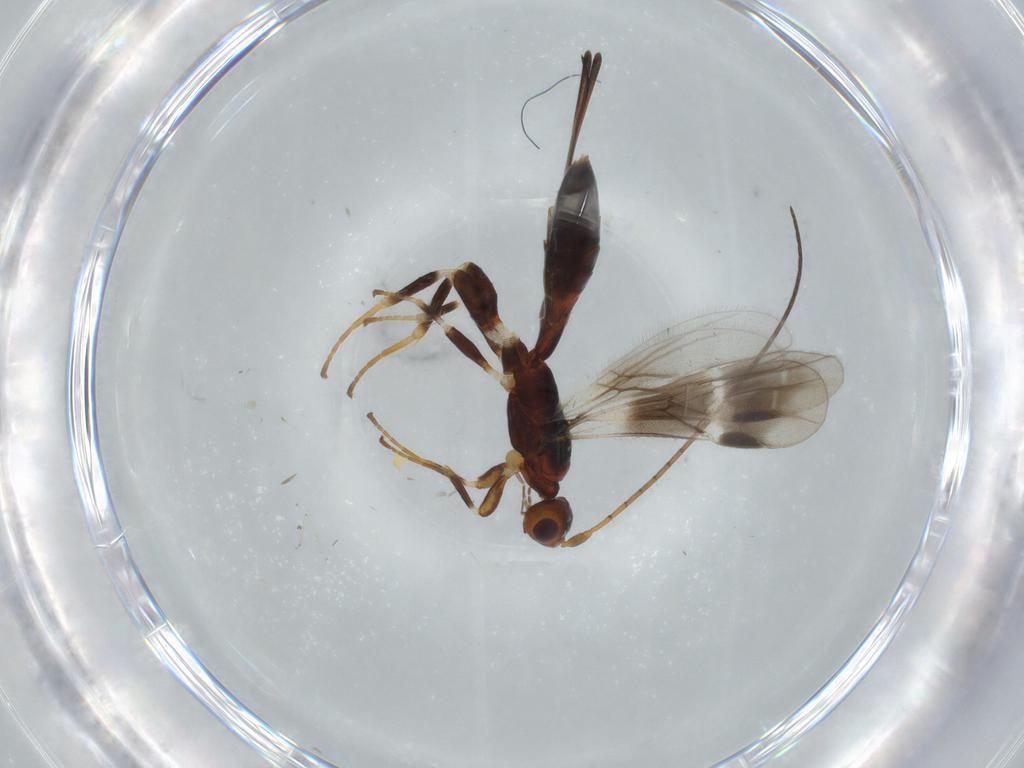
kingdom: Animalia
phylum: Arthropoda
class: Insecta
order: Hymenoptera
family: Braconidae
